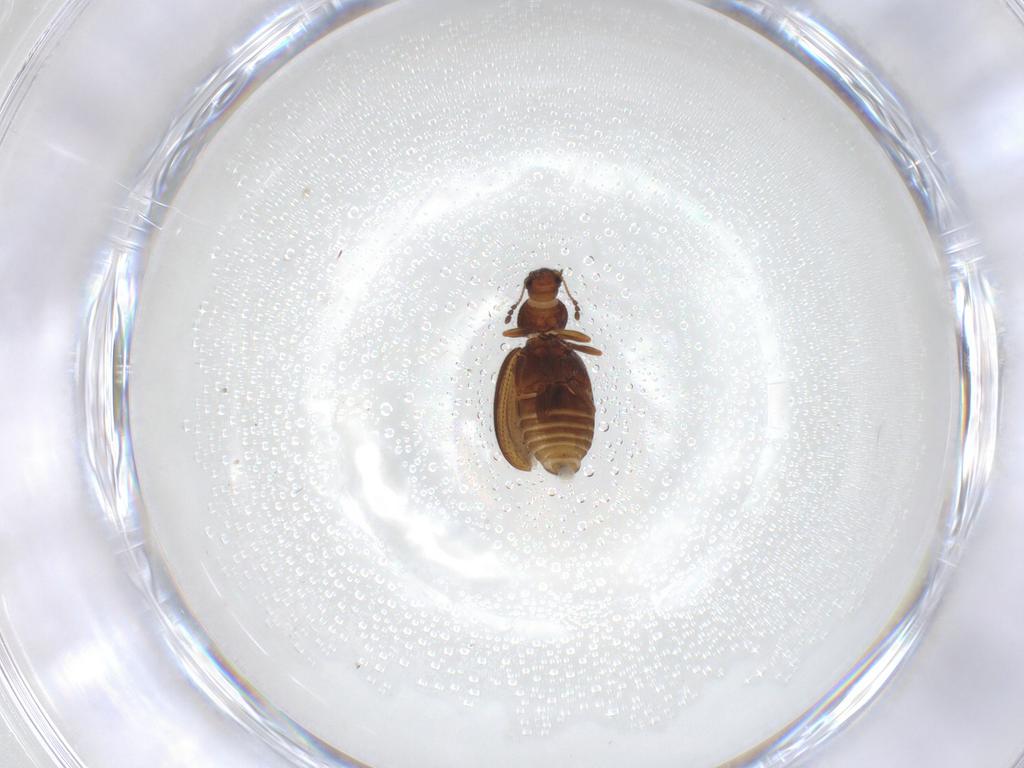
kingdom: Animalia
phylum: Arthropoda
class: Insecta
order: Coleoptera
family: Latridiidae
